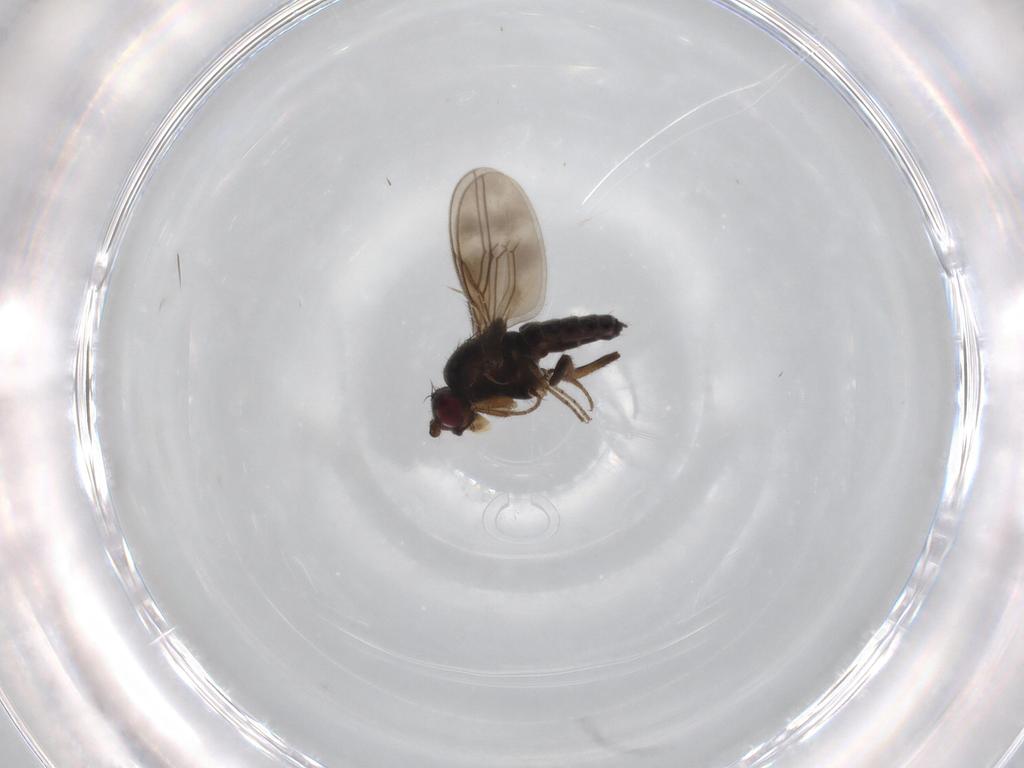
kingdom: Animalia
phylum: Arthropoda
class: Insecta
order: Diptera
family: Sphaeroceridae
